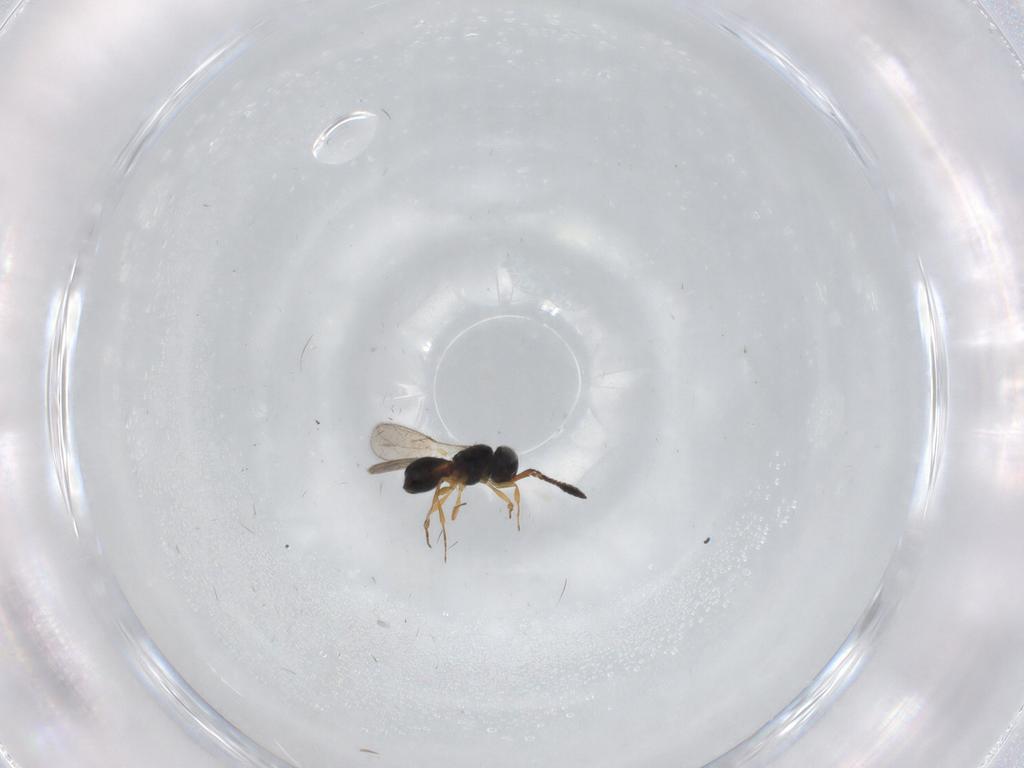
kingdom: Animalia
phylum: Arthropoda
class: Insecta
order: Hymenoptera
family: Scelionidae
